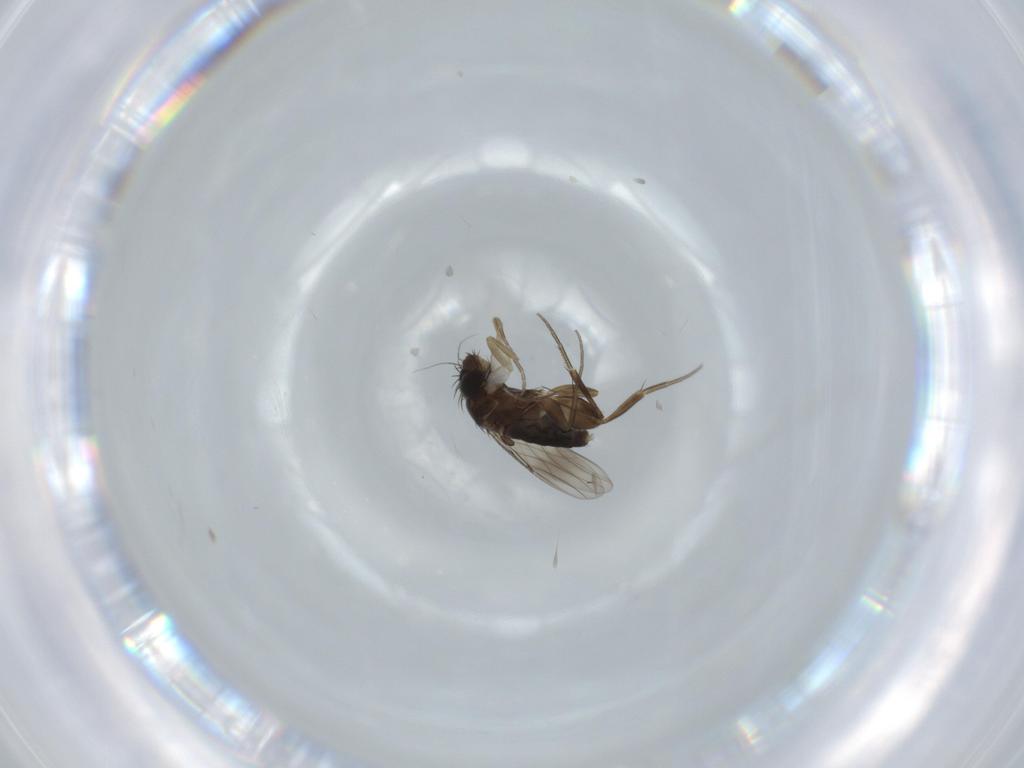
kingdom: Animalia
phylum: Arthropoda
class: Insecta
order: Diptera
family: Phoridae
